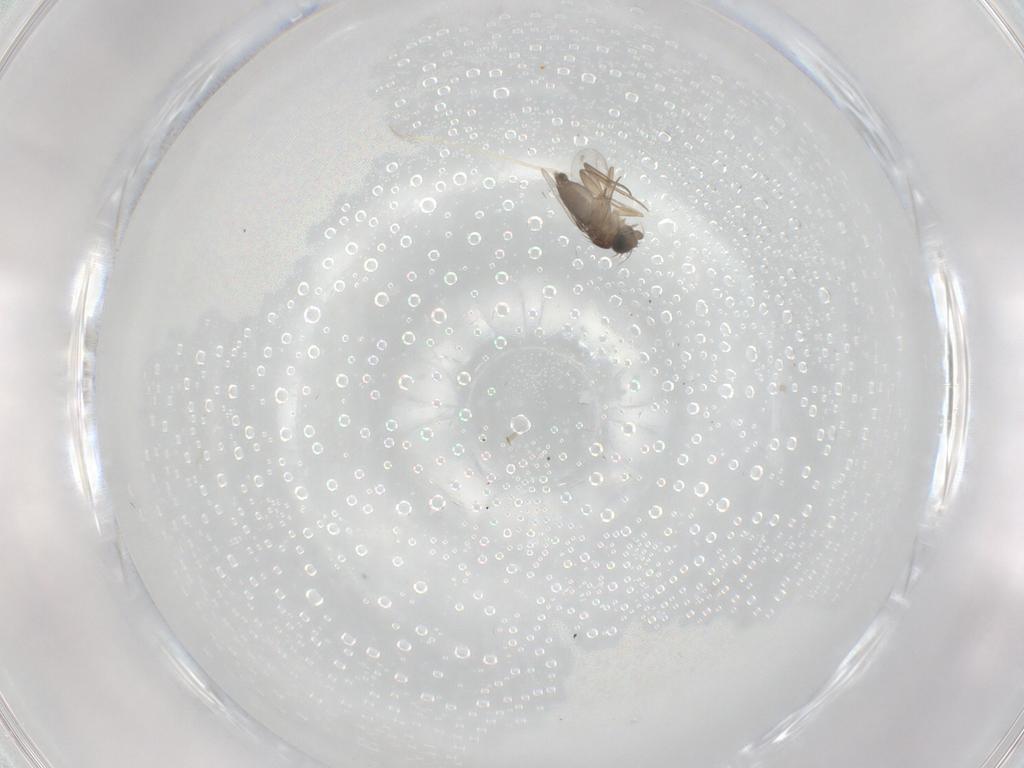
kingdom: Animalia
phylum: Arthropoda
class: Insecta
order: Diptera
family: Phoridae
